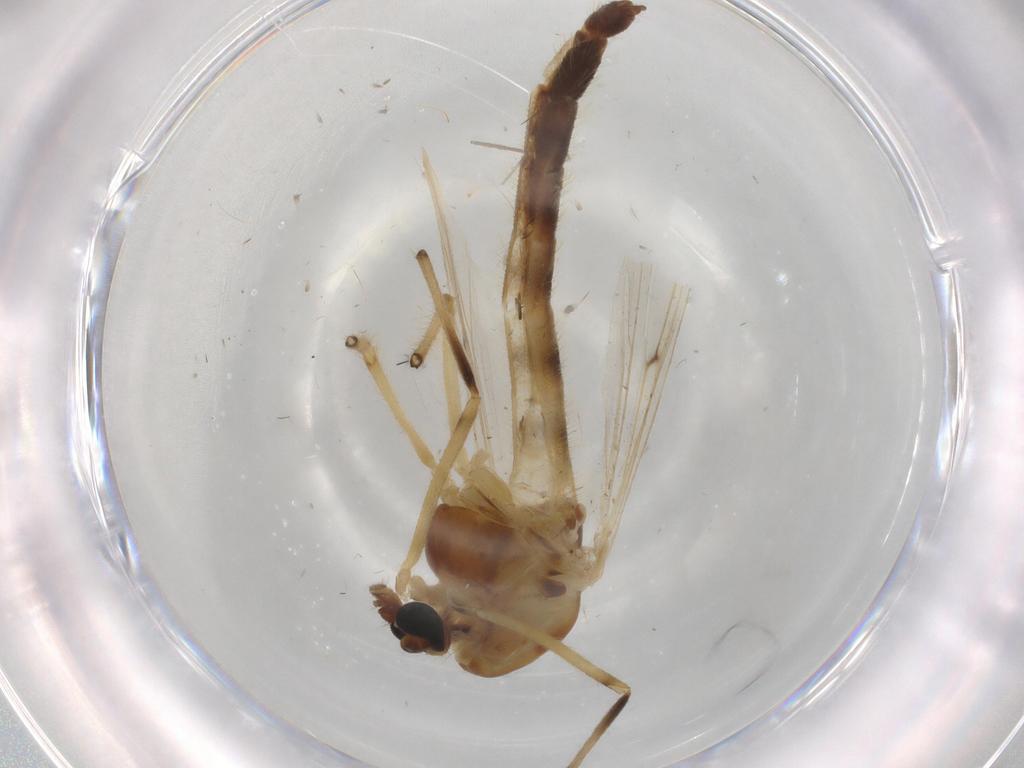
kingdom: Animalia
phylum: Arthropoda
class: Insecta
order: Diptera
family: Chironomidae
